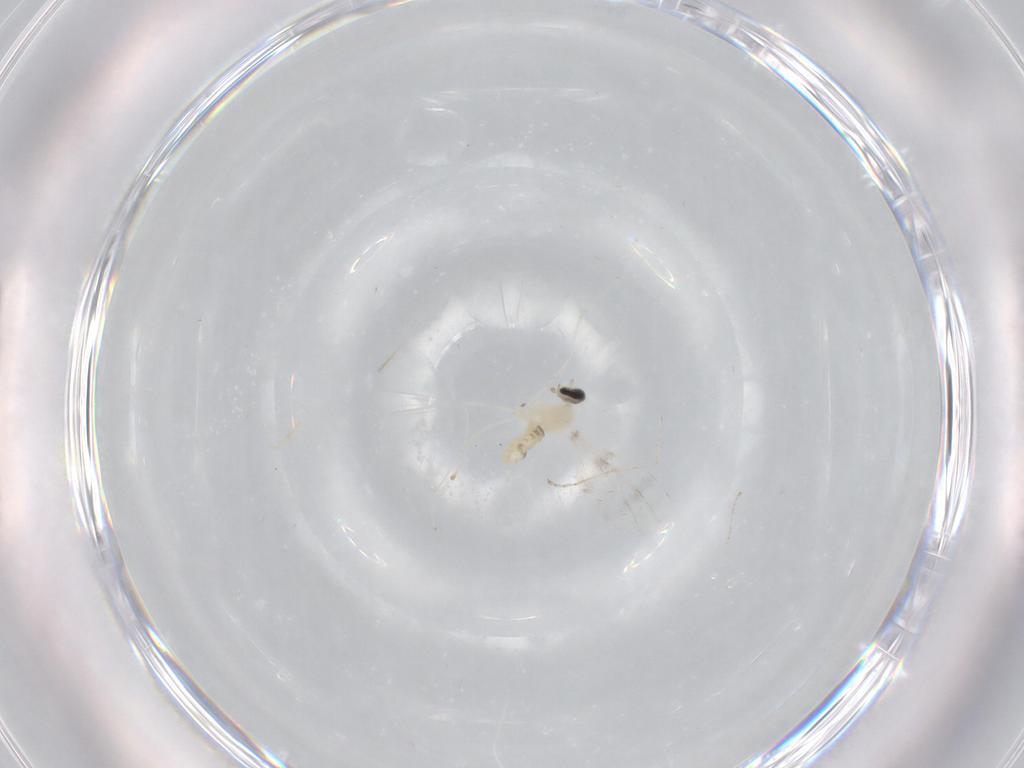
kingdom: Animalia
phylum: Arthropoda
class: Insecta
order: Diptera
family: Cecidomyiidae
